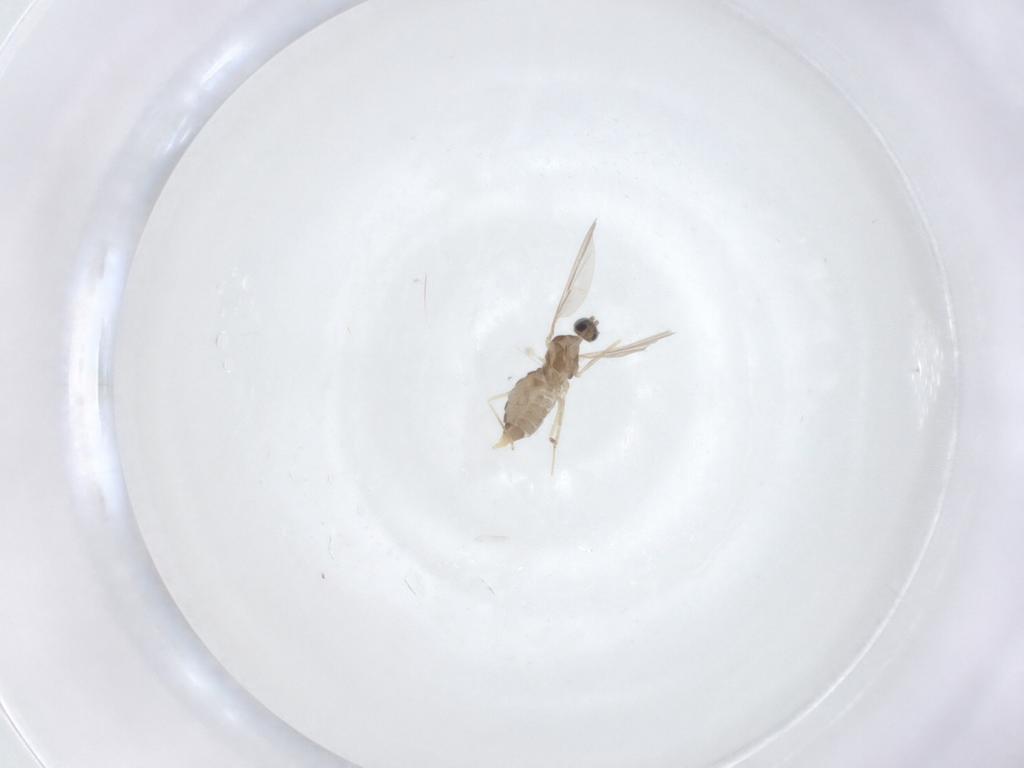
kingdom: Animalia
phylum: Arthropoda
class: Insecta
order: Diptera
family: Cecidomyiidae
